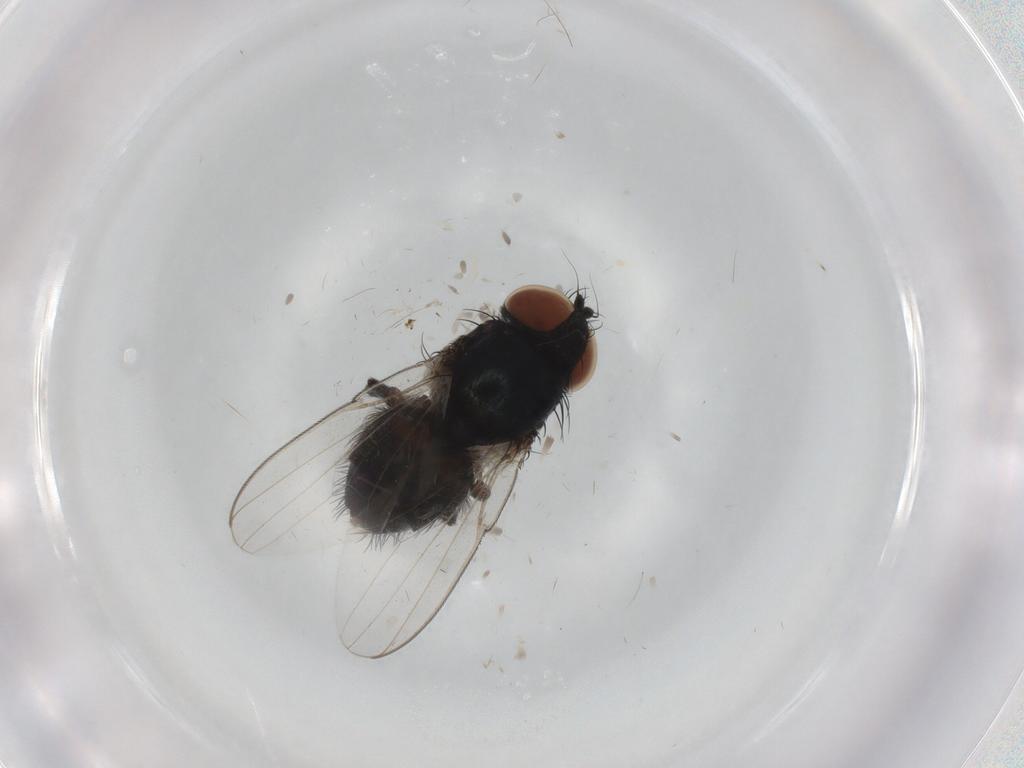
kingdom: Animalia
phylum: Arthropoda
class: Insecta
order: Diptera
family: Milichiidae
